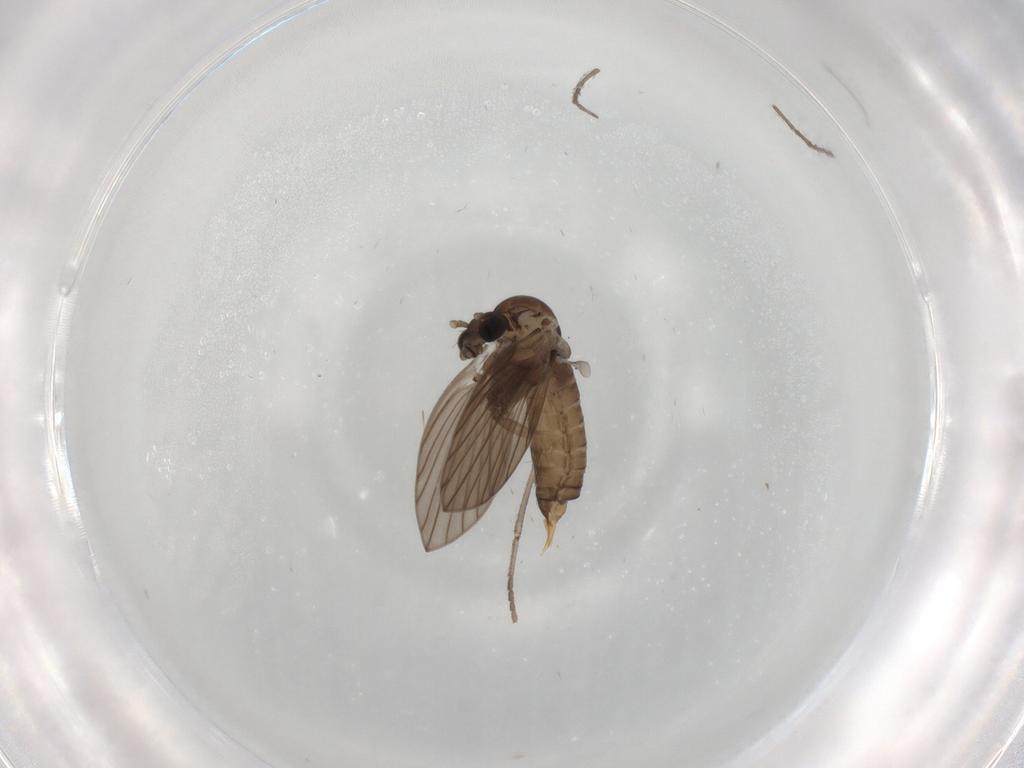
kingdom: Animalia
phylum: Arthropoda
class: Insecta
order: Diptera
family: Psychodidae
